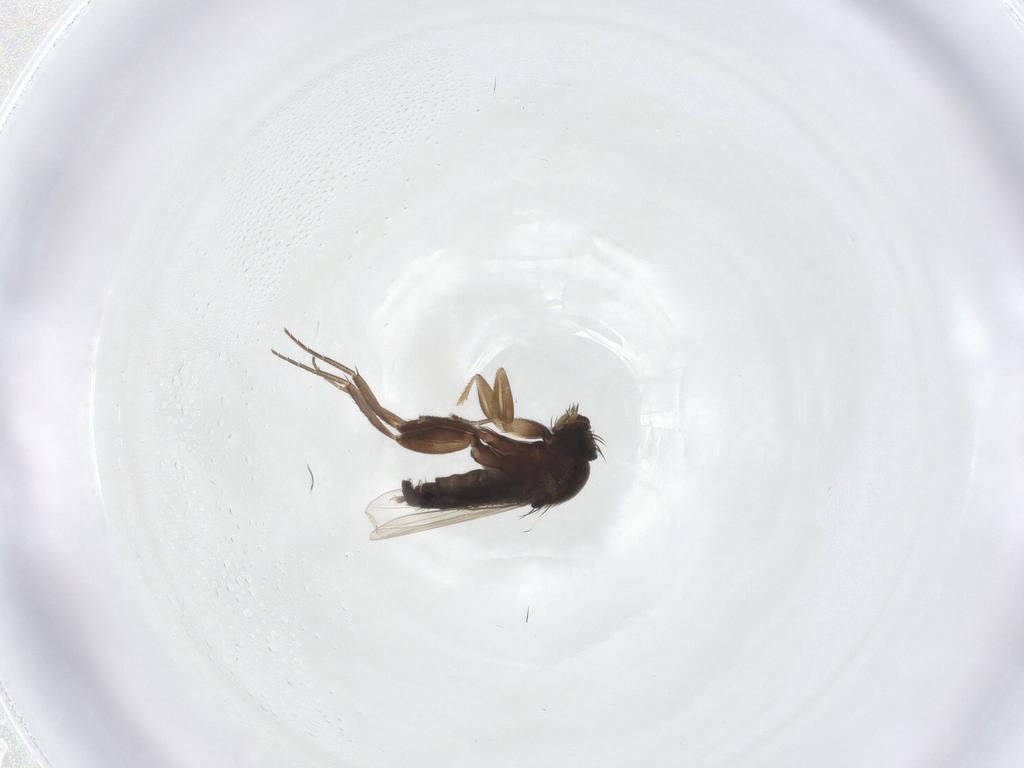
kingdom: Animalia
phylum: Arthropoda
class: Insecta
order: Diptera
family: Phoridae
